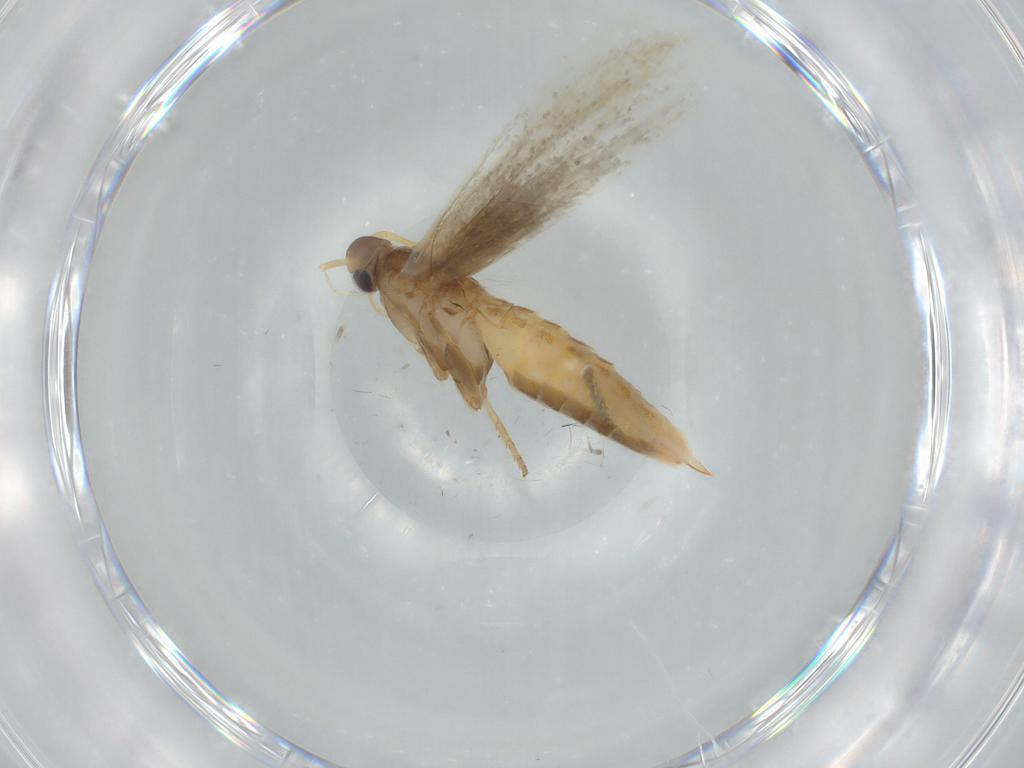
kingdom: Animalia
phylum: Arthropoda
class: Insecta
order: Lepidoptera
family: Coleophoridae
